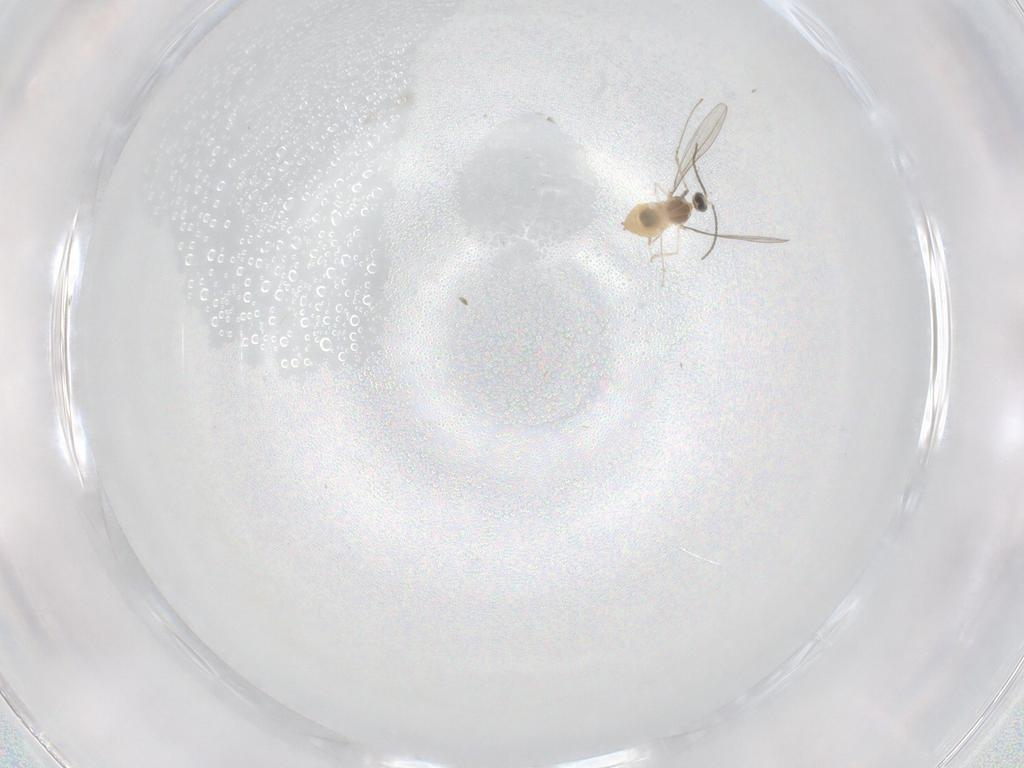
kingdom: Animalia
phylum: Arthropoda
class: Insecta
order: Diptera
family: Cecidomyiidae
